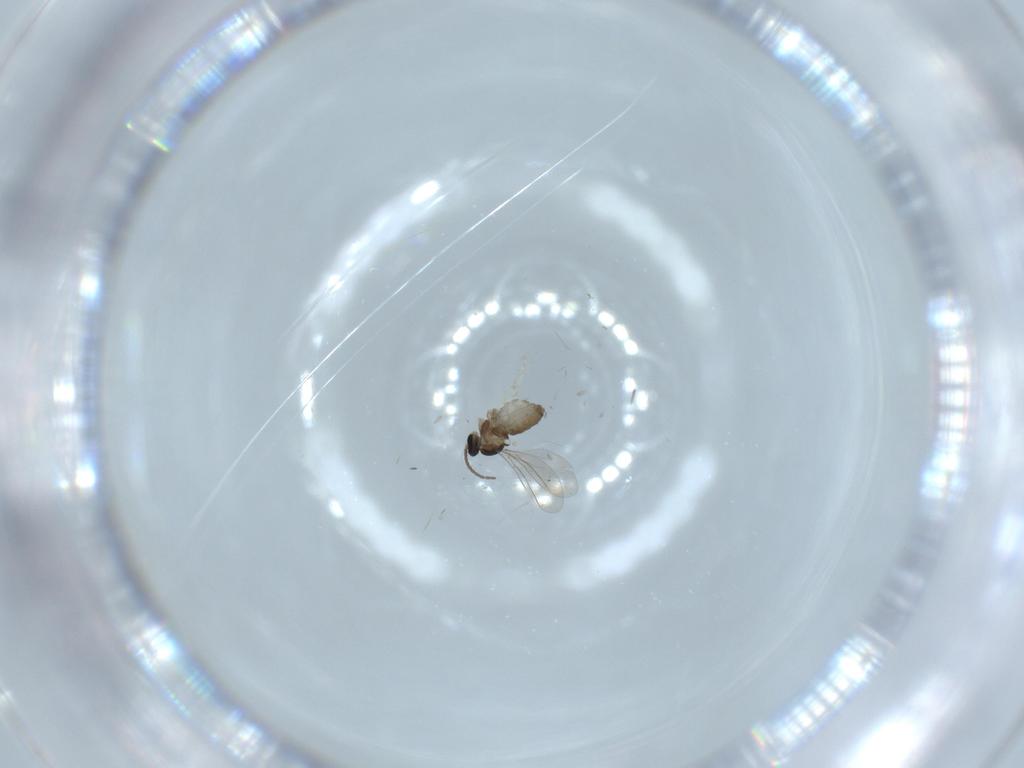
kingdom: Animalia
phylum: Arthropoda
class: Insecta
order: Diptera
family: Cecidomyiidae
